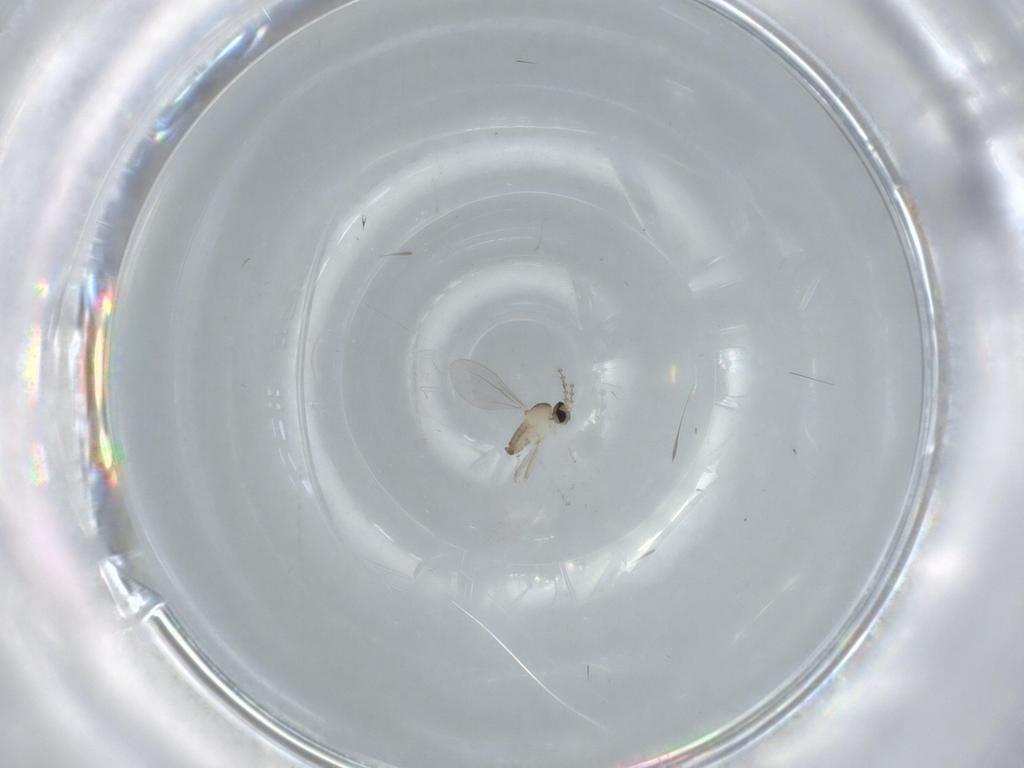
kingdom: Animalia
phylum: Arthropoda
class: Insecta
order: Diptera
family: Cecidomyiidae
